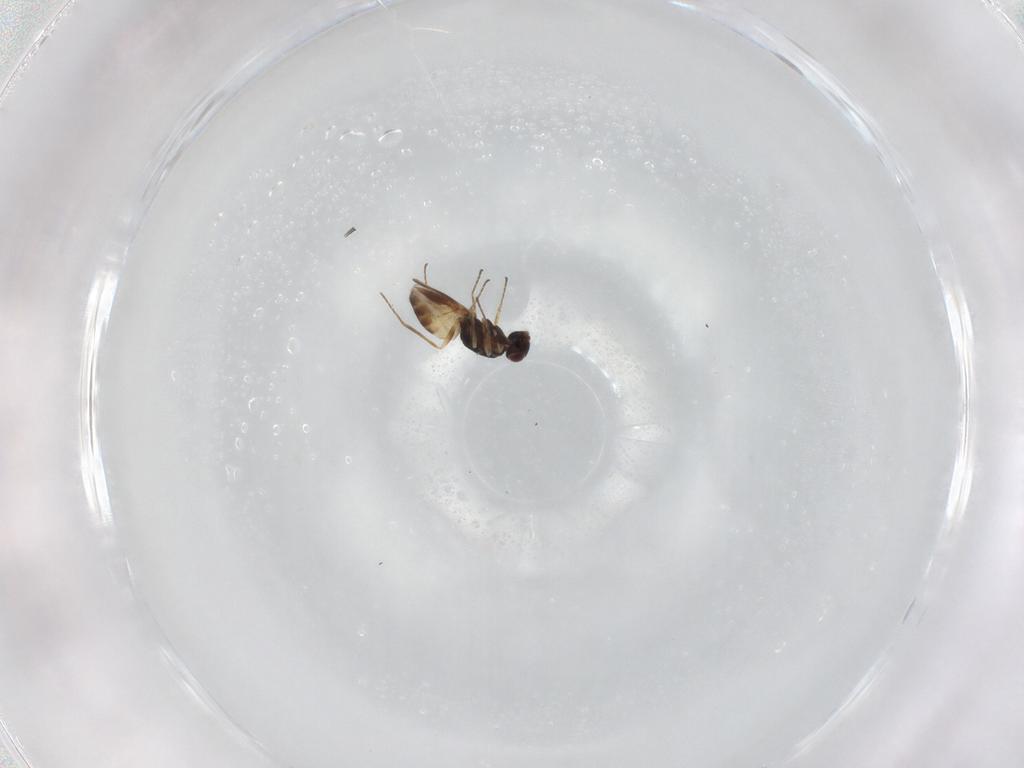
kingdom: Animalia
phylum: Arthropoda
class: Insecta
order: Hymenoptera
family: Mymaridae
